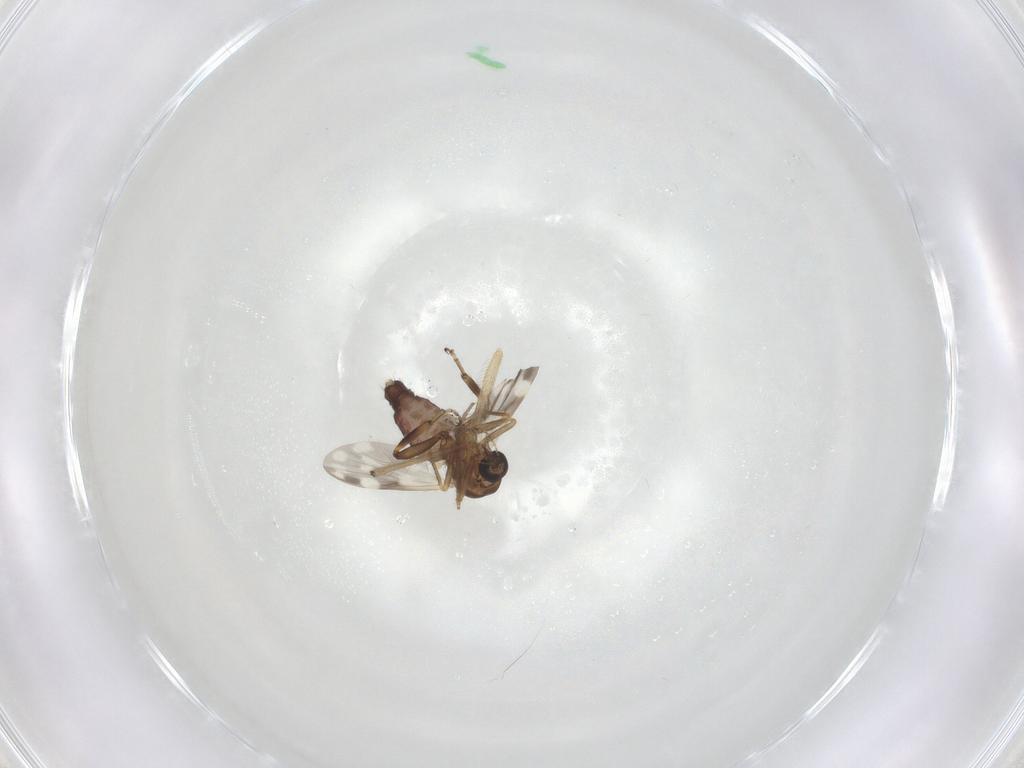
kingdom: Animalia
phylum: Arthropoda
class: Insecta
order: Diptera
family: Ceratopogonidae
